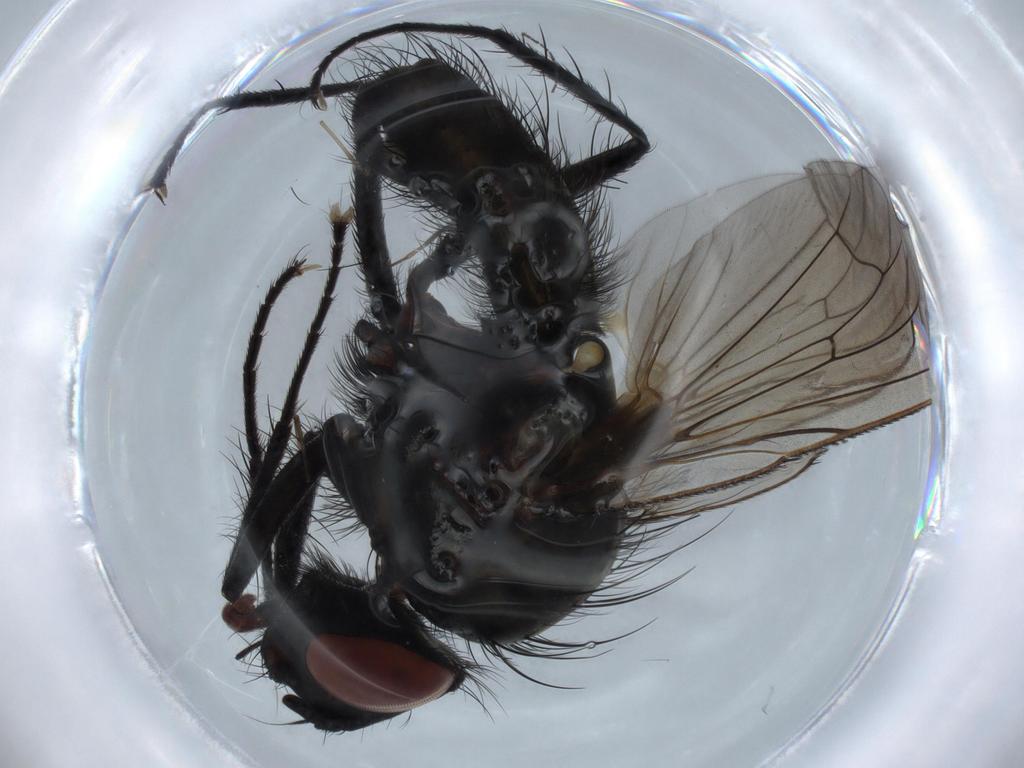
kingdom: Animalia
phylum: Arthropoda
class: Insecta
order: Diptera
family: Anthomyiidae
